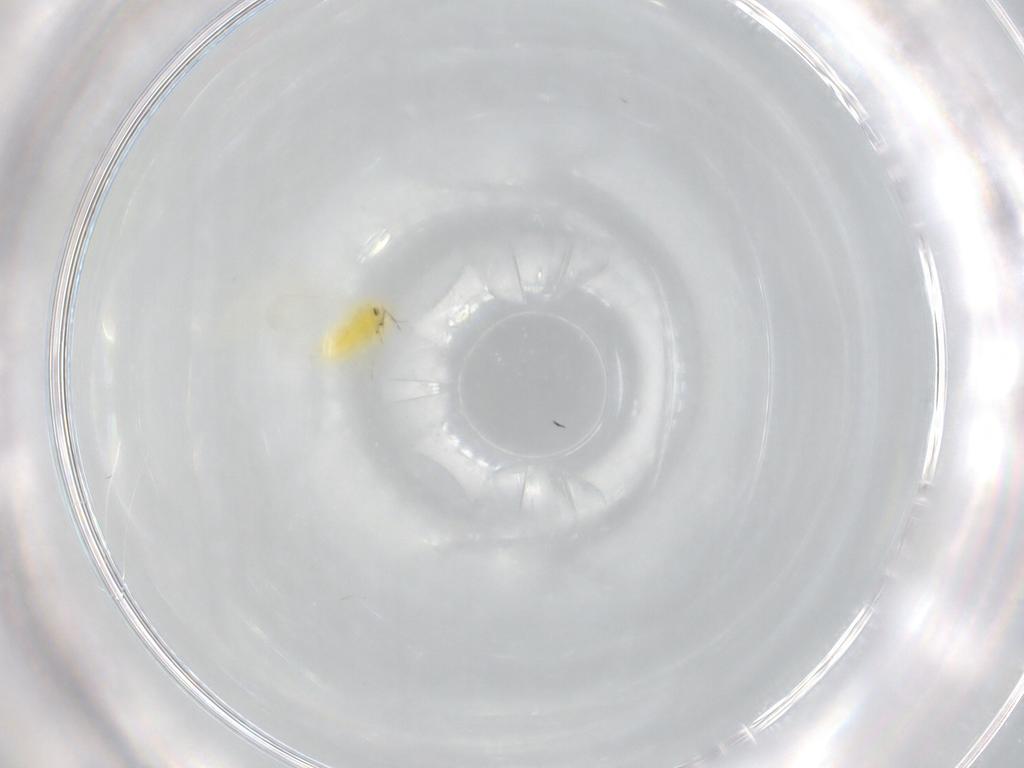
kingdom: Animalia
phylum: Arthropoda
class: Insecta
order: Hemiptera
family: Aleyrodidae
